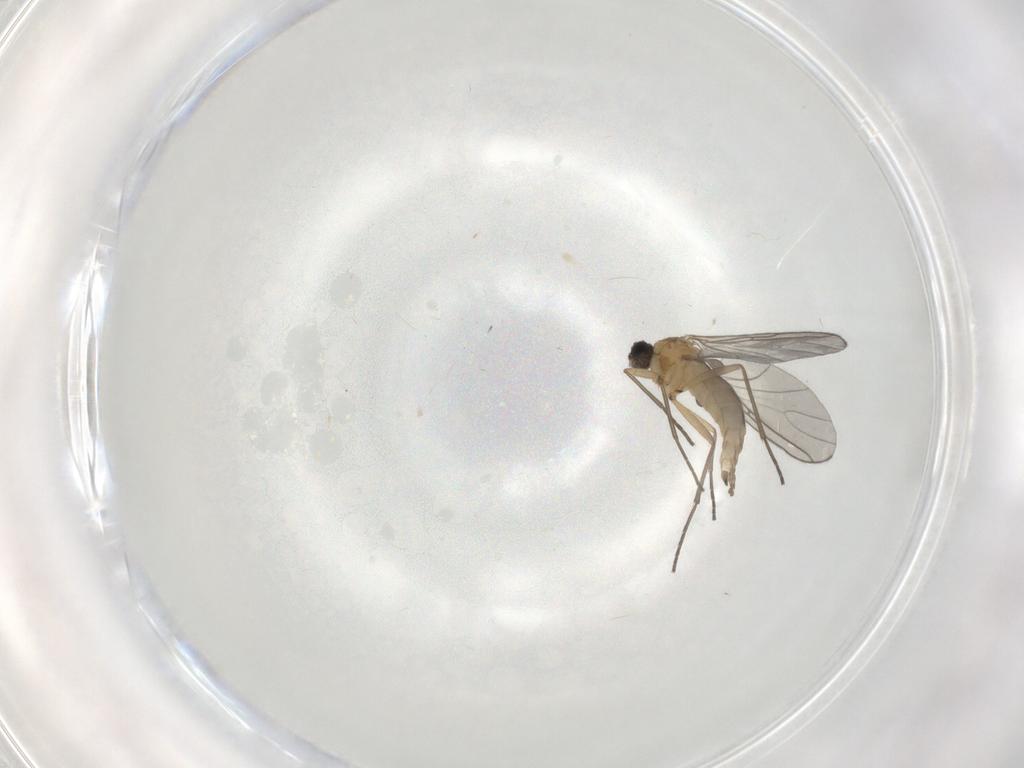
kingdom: Animalia
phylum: Arthropoda
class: Insecta
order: Diptera
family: Sciaridae
